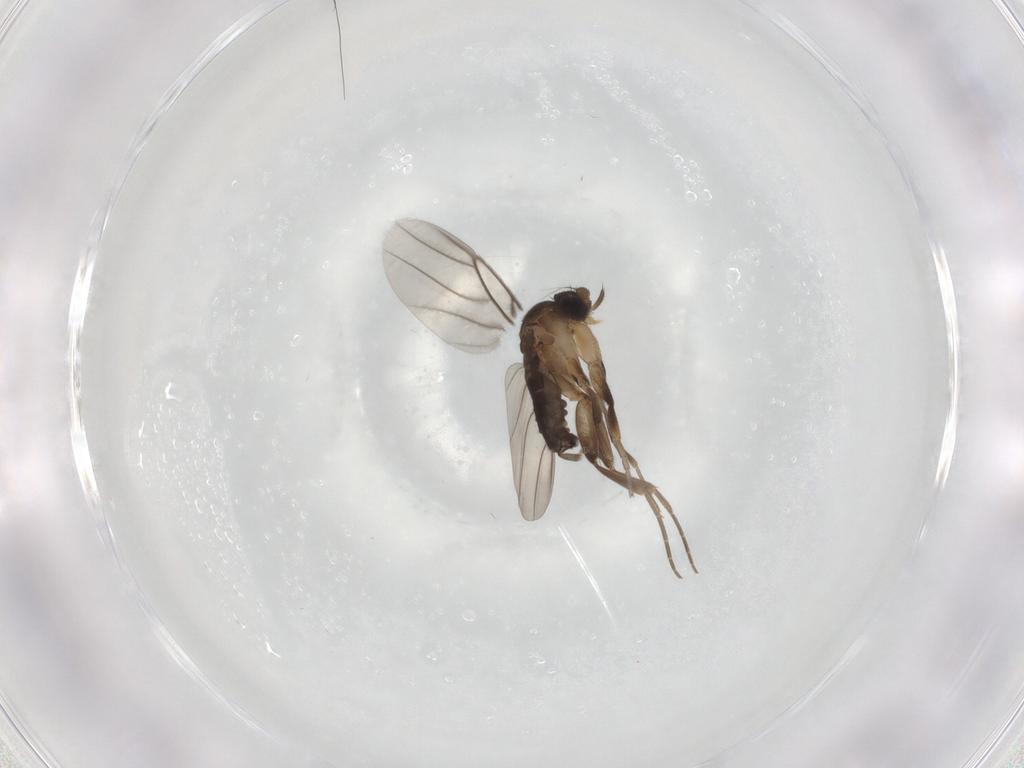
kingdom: Animalia
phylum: Arthropoda
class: Insecta
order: Diptera
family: Phoridae
